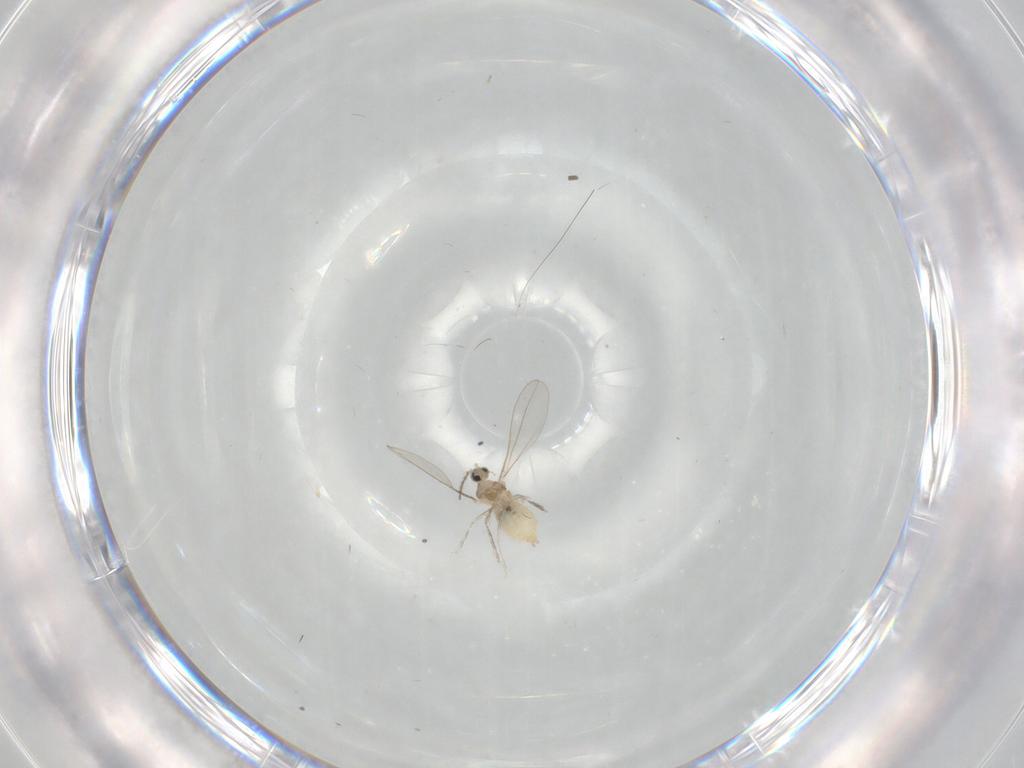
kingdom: Animalia
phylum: Arthropoda
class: Insecta
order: Diptera
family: Cecidomyiidae
